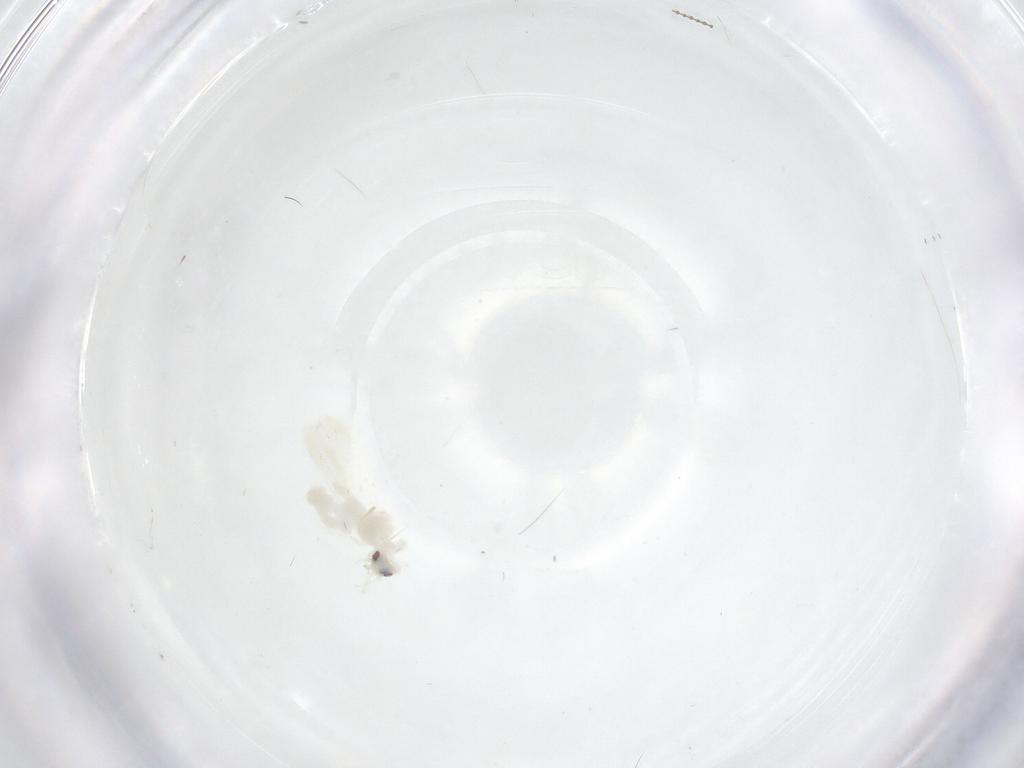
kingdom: Animalia
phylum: Arthropoda
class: Insecta
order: Hemiptera
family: Aleyrodidae
